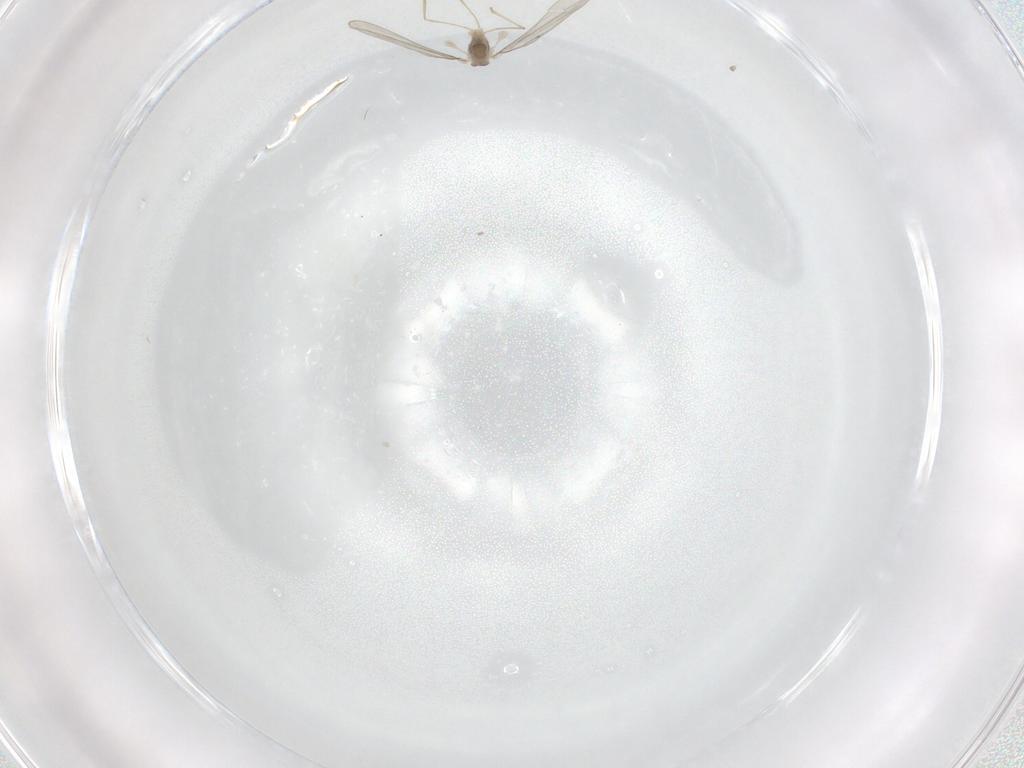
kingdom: Animalia
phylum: Arthropoda
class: Insecta
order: Diptera
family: Cecidomyiidae
